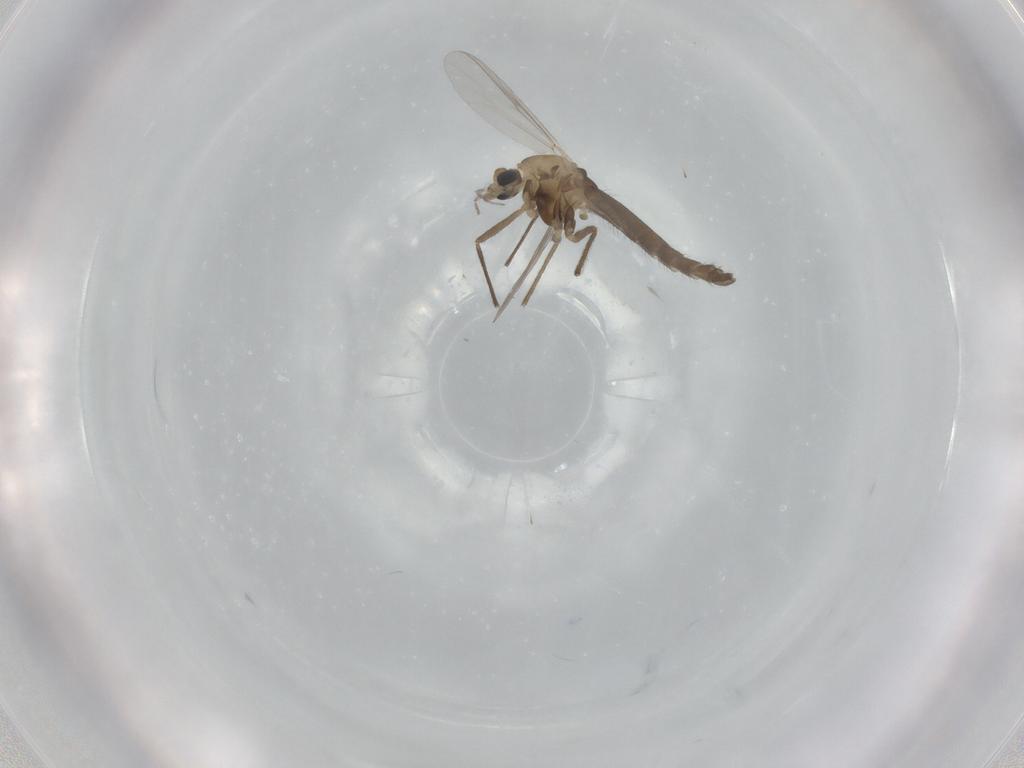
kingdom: Animalia
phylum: Arthropoda
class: Insecta
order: Diptera
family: Chironomidae
